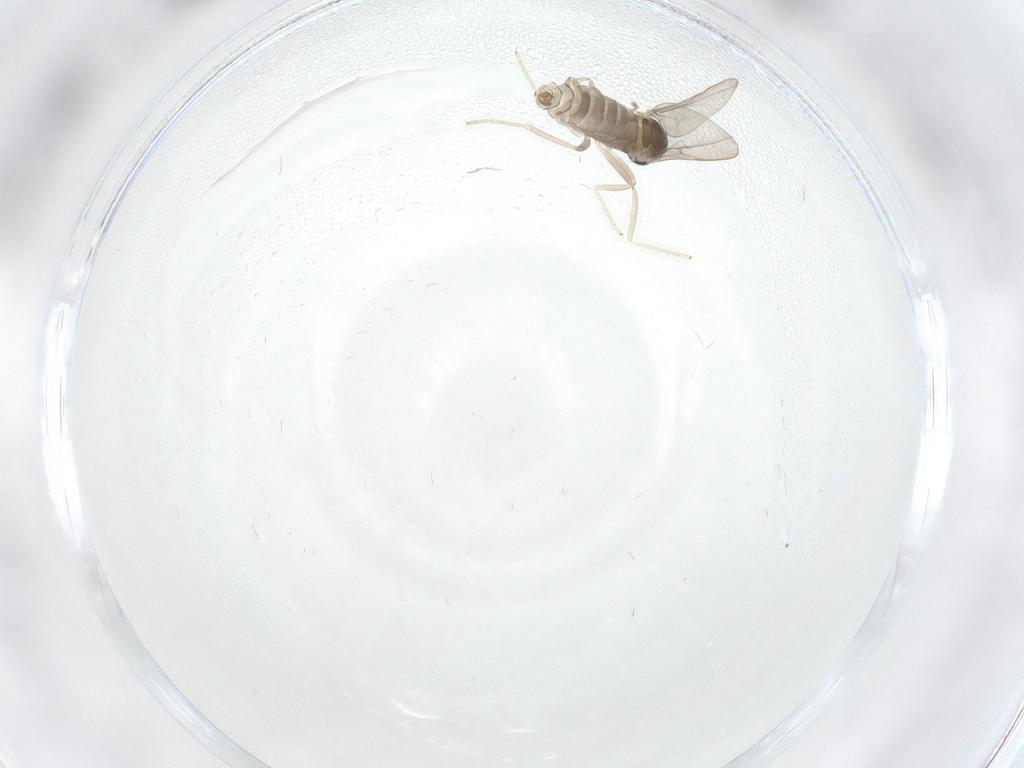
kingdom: Animalia
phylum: Arthropoda
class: Insecta
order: Diptera
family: Cecidomyiidae
